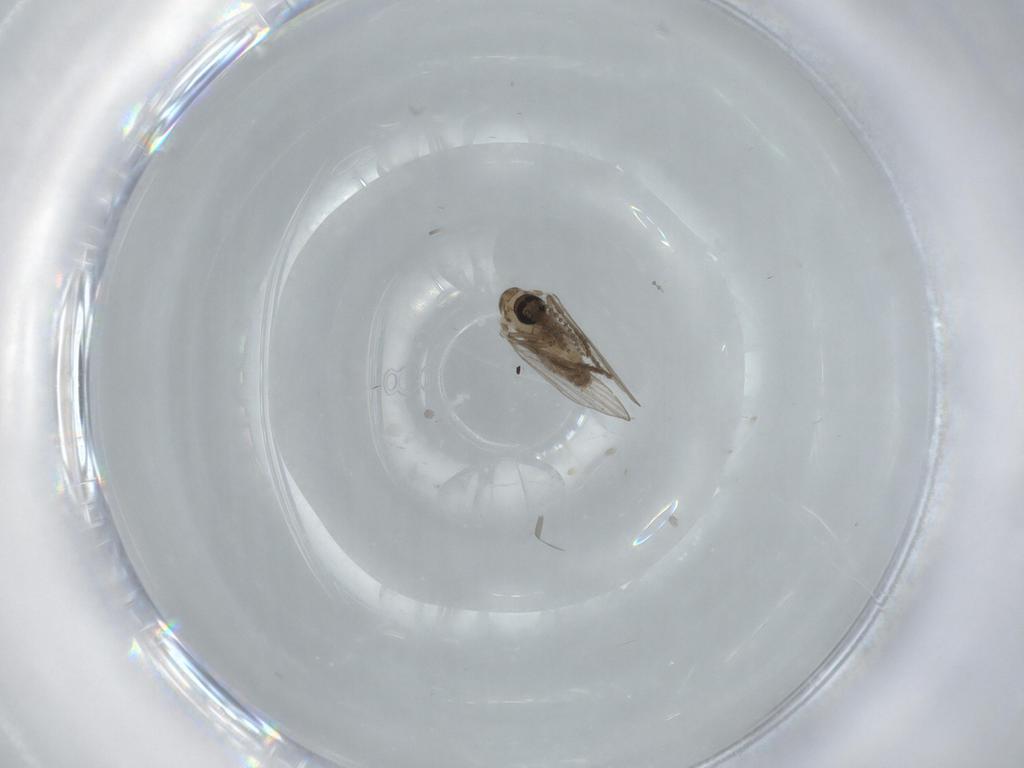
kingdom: Animalia
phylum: Arthropoda
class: Insecta
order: Diptera
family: Psychodidae
